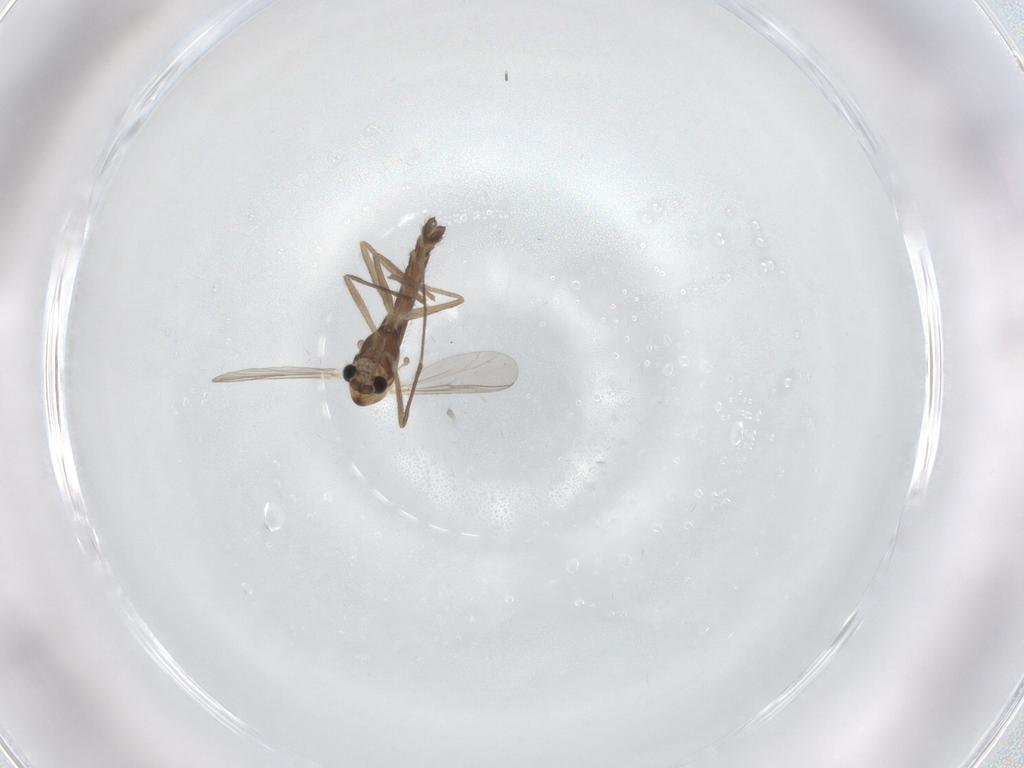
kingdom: Animalia
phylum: Arthropoda
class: Insecta
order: Diptera
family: Chironomidae
